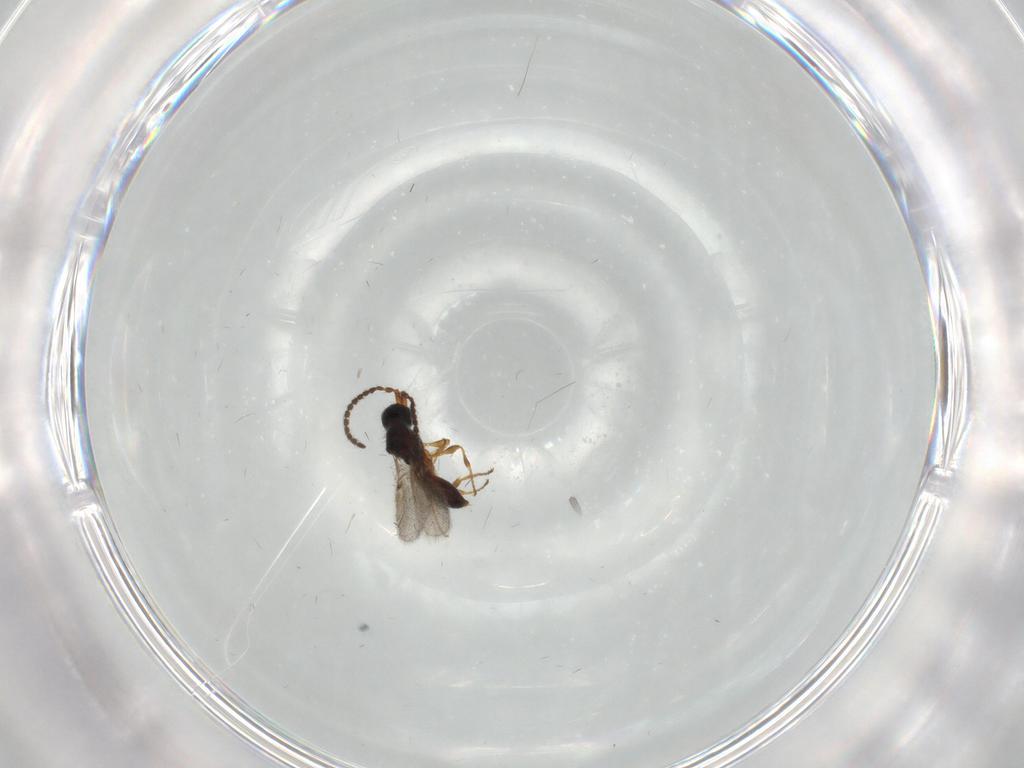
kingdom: Animalia
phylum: Arthropoda
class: Insecta
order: Hymenoptera
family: Diapriidae
